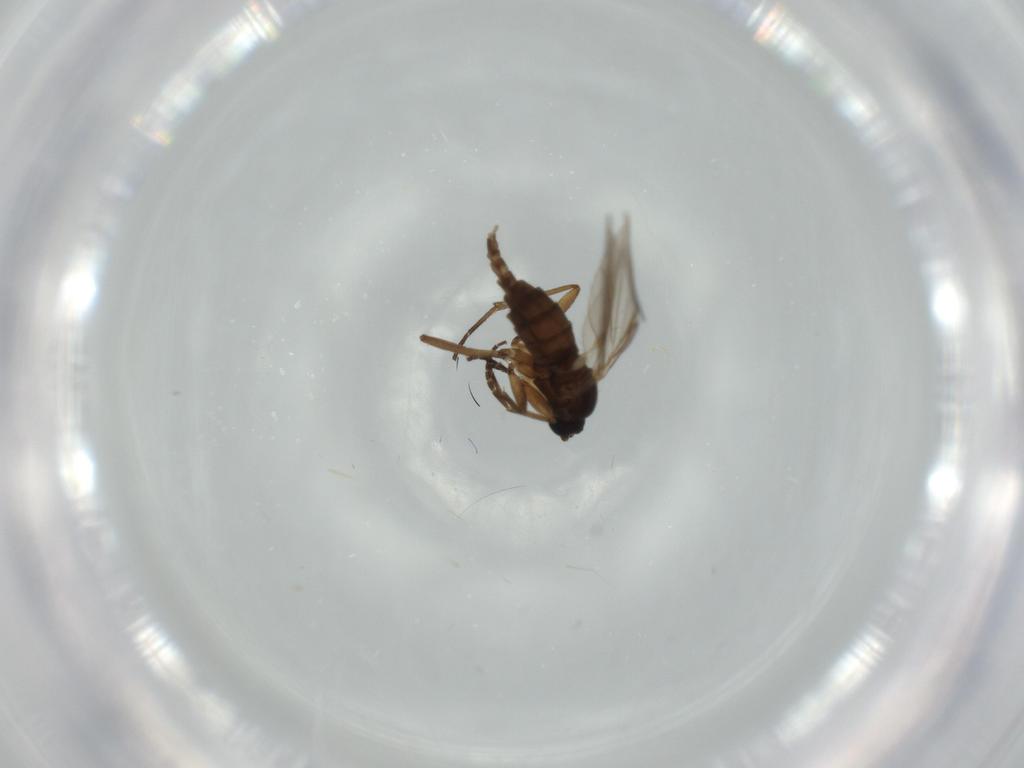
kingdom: Animalia
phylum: Arthropoda
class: Insecta
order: Diptera
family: Sciaridae
